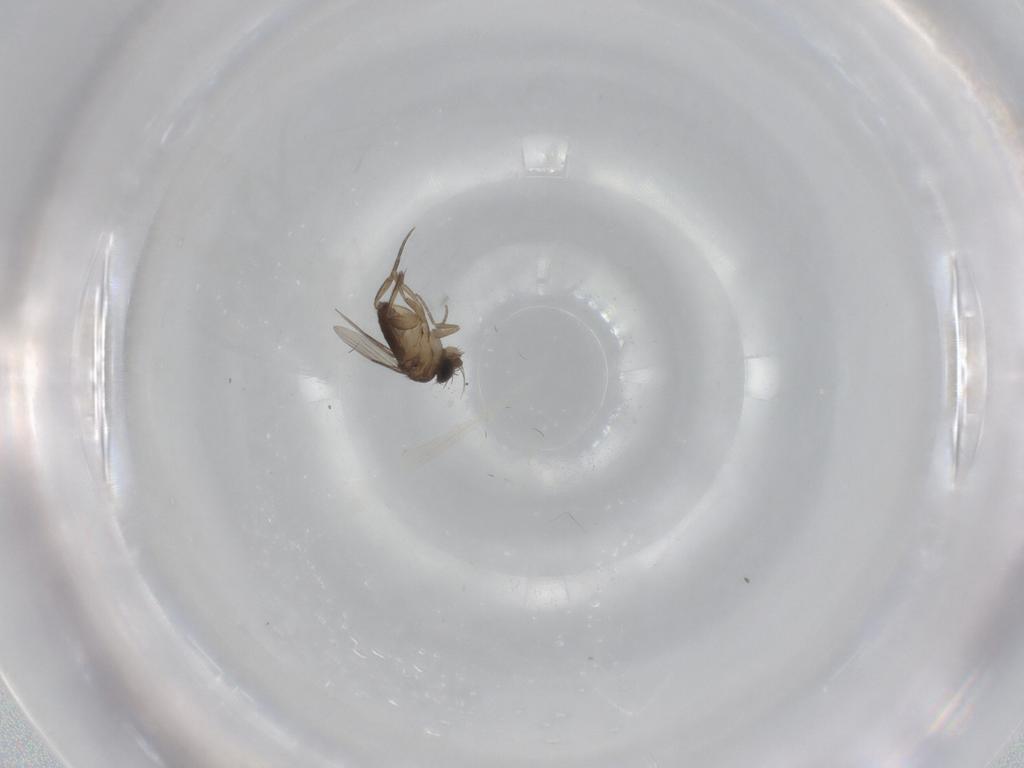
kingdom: Animalia
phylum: Arthropoda
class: Insecta
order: Diptera
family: Phoridae
